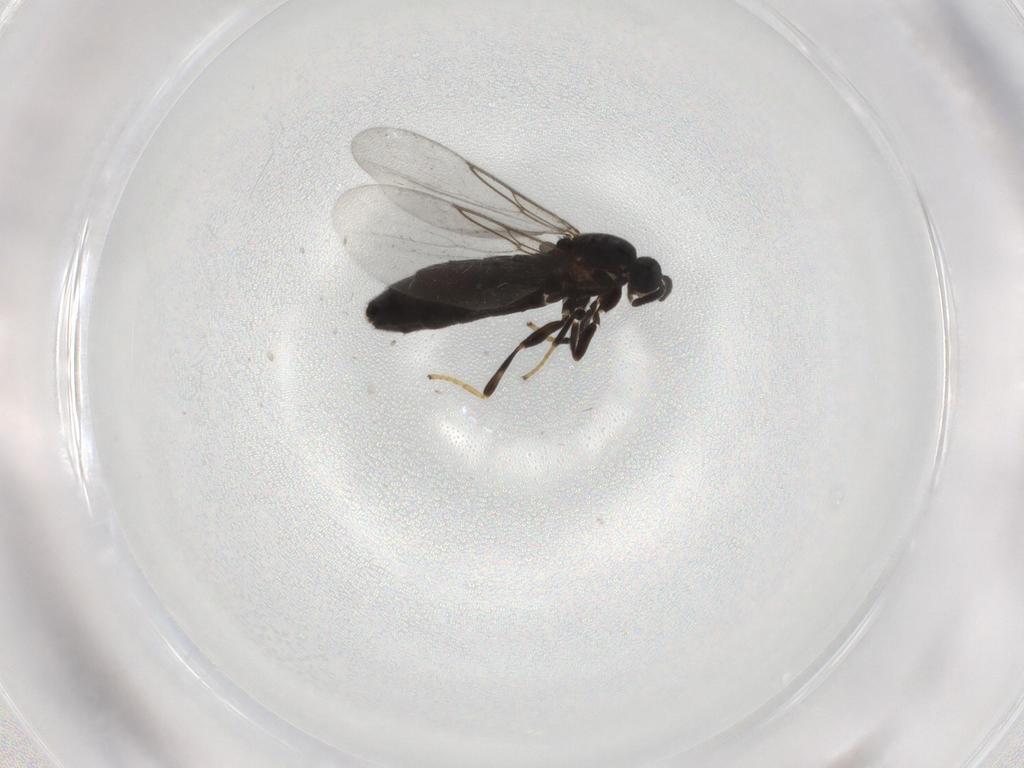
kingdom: Animalia
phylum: Arthropoda
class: Insecta
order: Diptera
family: Scatopsidae
